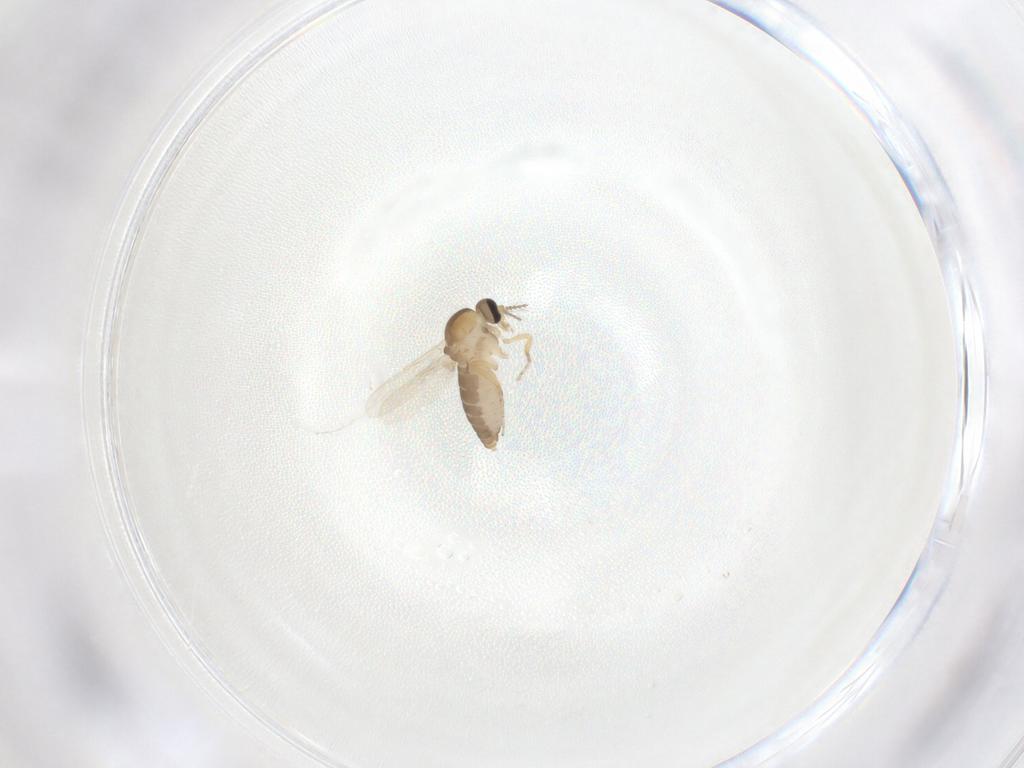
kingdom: Animalia
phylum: Arthropoda
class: Insecta
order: Diptera
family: Ceratopogonidae
